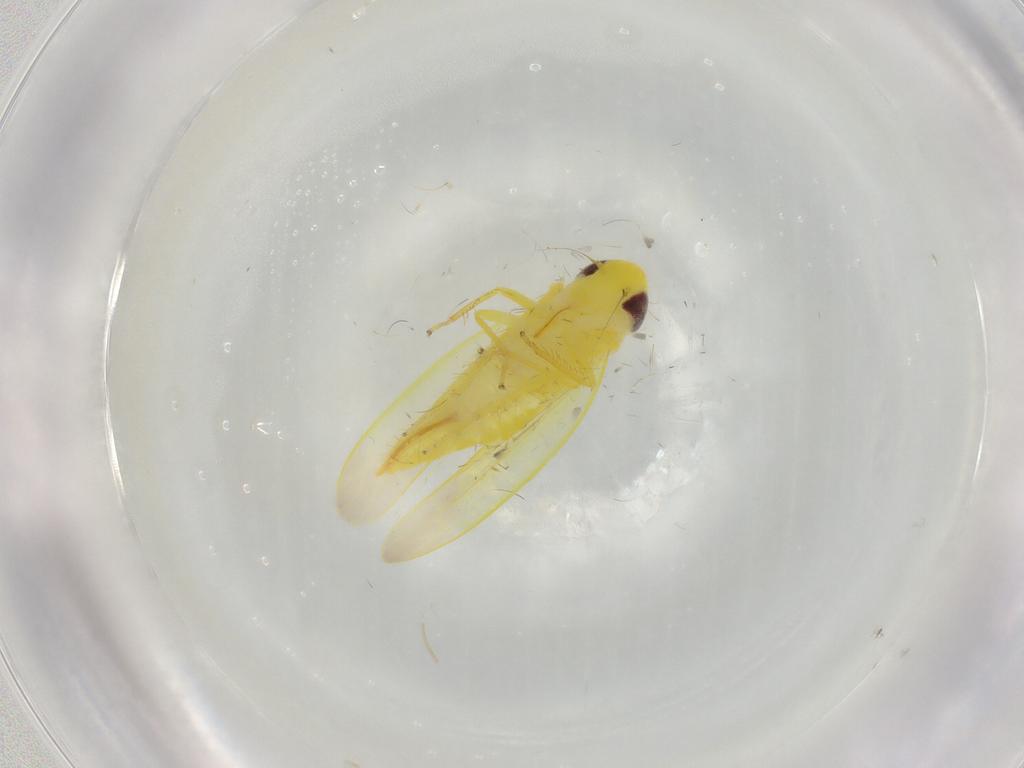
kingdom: Animalia
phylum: Arthropoda
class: Insecta
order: Hemiptera
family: Cicadellidae
